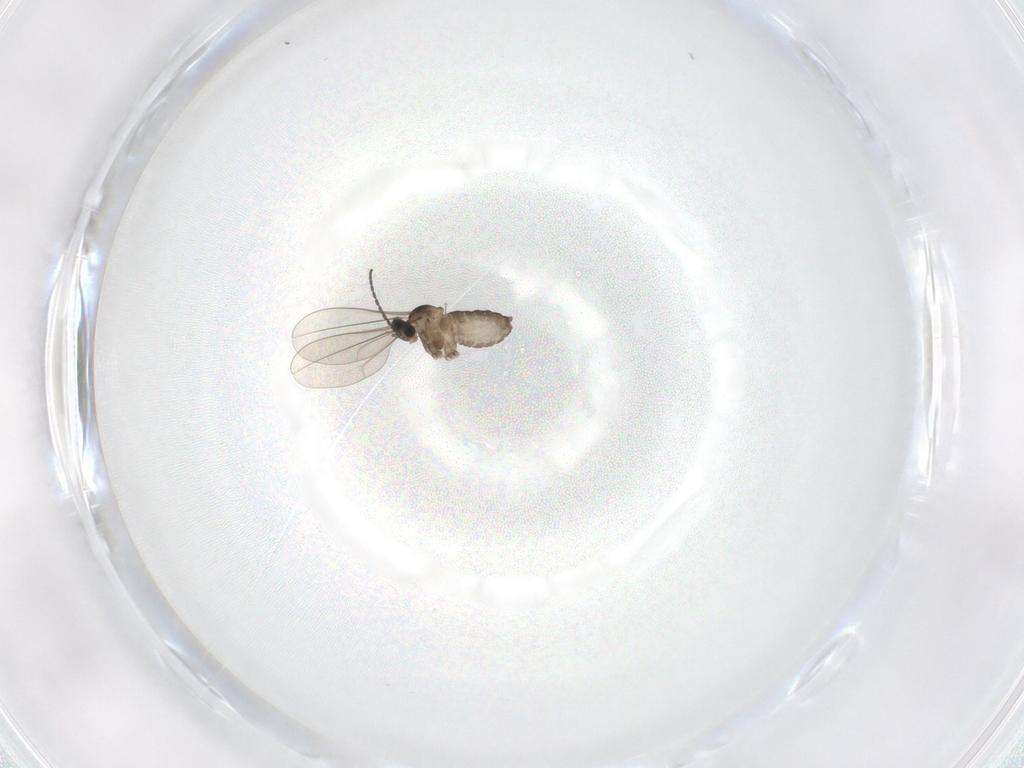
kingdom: Animalia
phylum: Arthropoda
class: Insecta
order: Diptera
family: Cecidomyiidae
